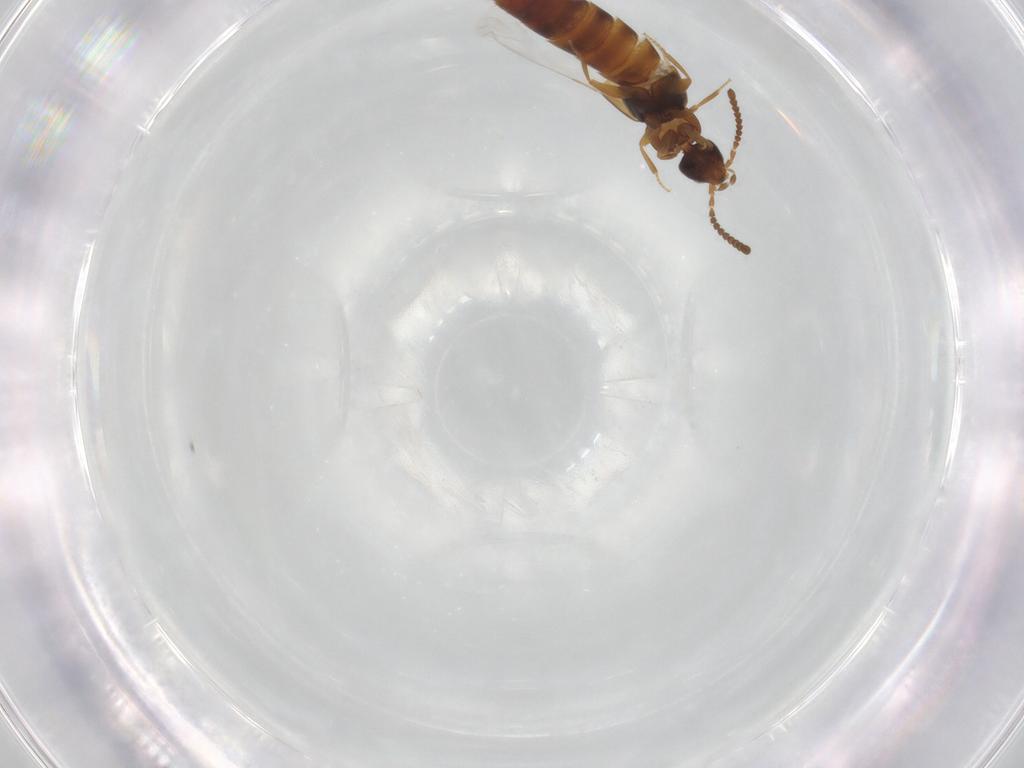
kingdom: Animalia
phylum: Arthropoda
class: Insecta
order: Coleoptera
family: Staphylinidae
